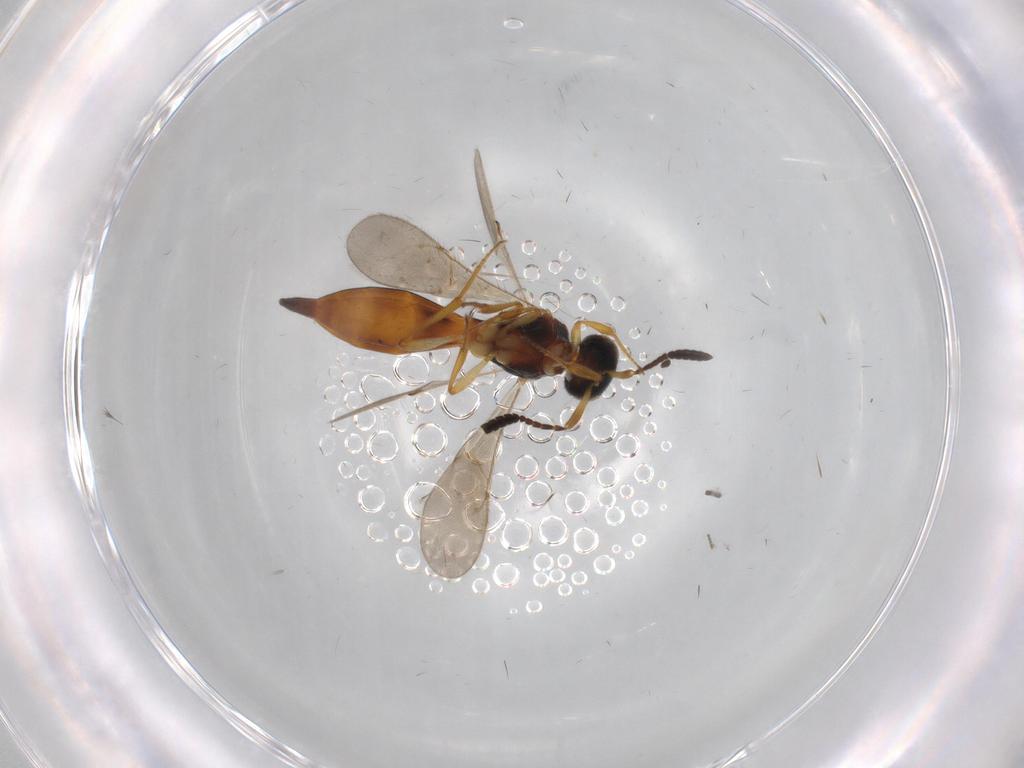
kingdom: Animalia
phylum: Arthropoda
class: Insecta
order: Hymenoptera
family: Scelionidae
